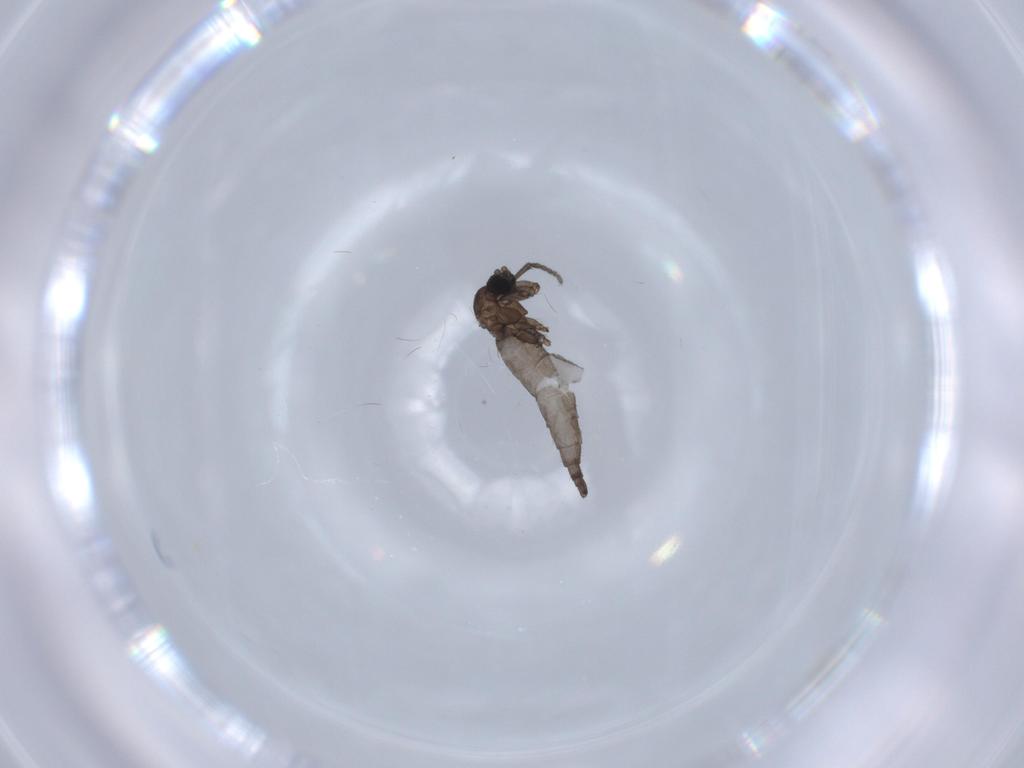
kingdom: Animalia
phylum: Arthropoda
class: Insecta
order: Diptera
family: Sciaridae
